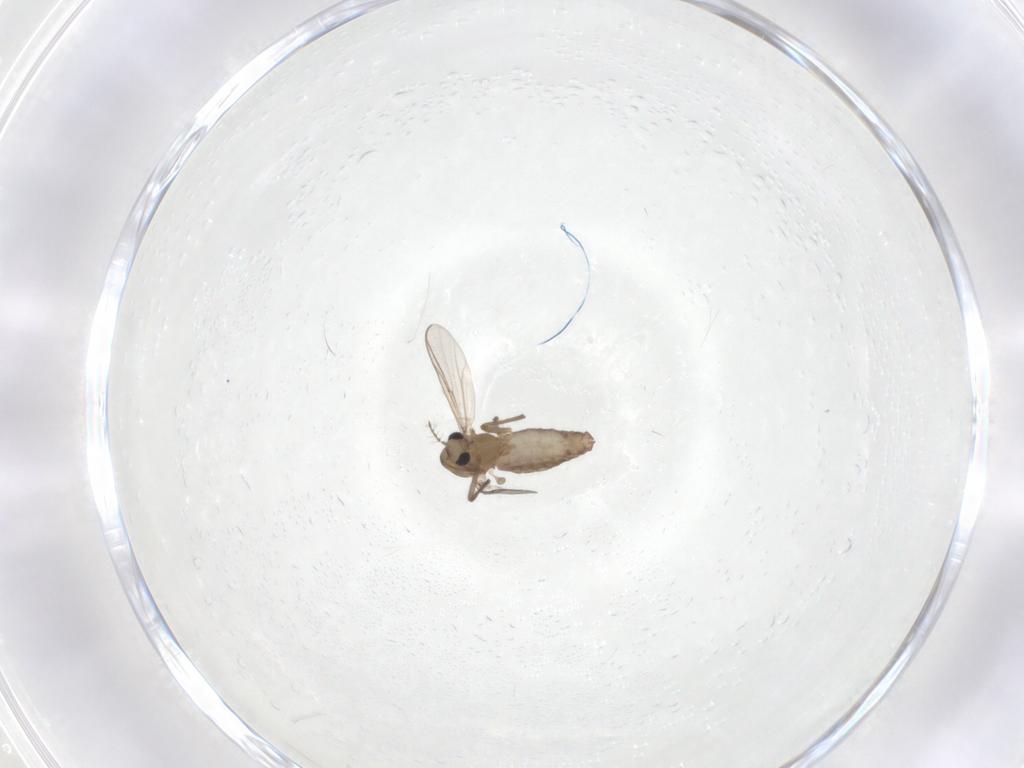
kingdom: Animalia
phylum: Arthropoda
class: Insecta
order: Diptera
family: Chironomidae
